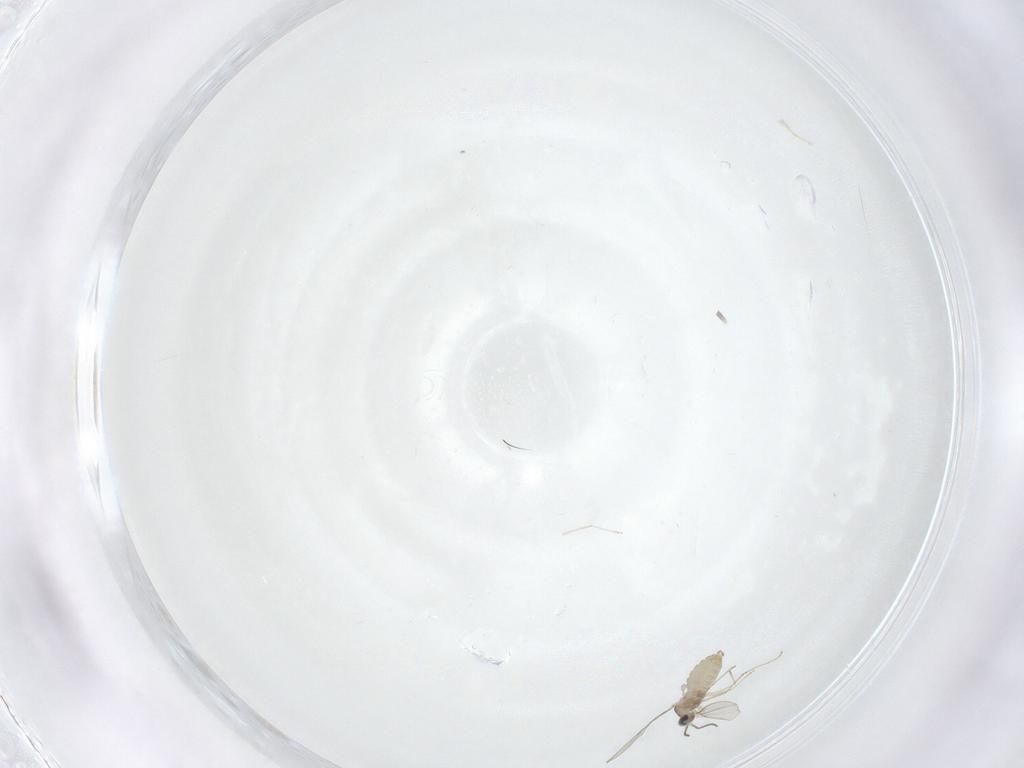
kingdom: Animalia
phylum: Arthropoda
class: Insecta
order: Diptera
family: Cecidomyiidae
